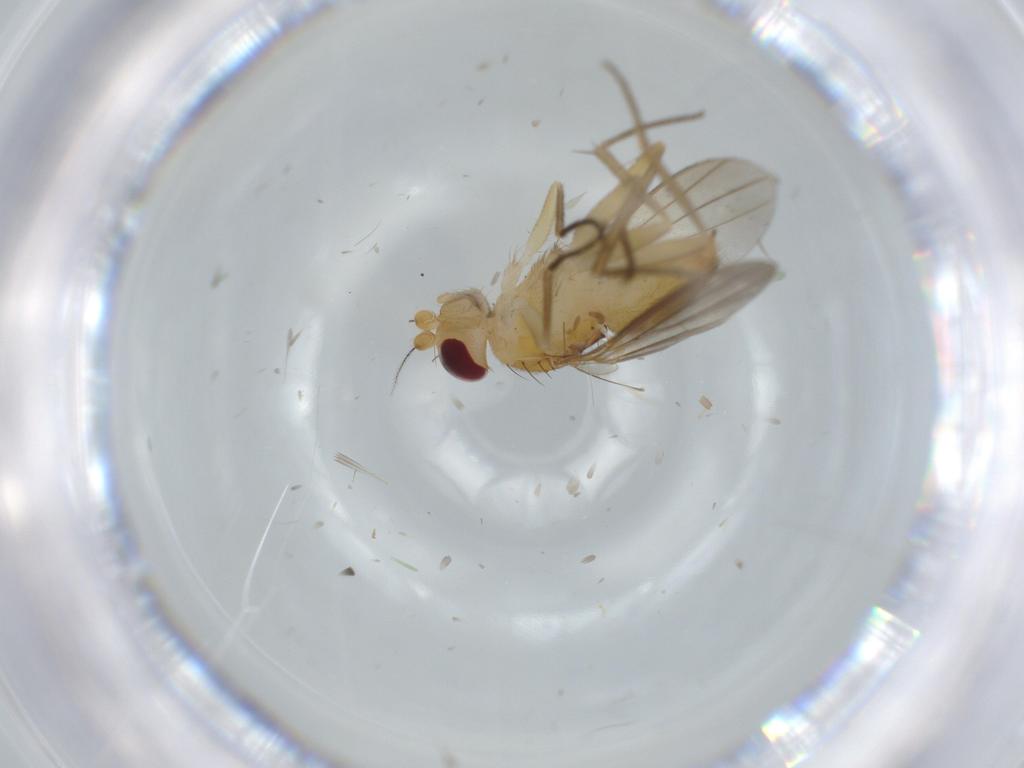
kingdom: Animalia
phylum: Arthropoda
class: Insecta
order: Diptera
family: Clusiidae
